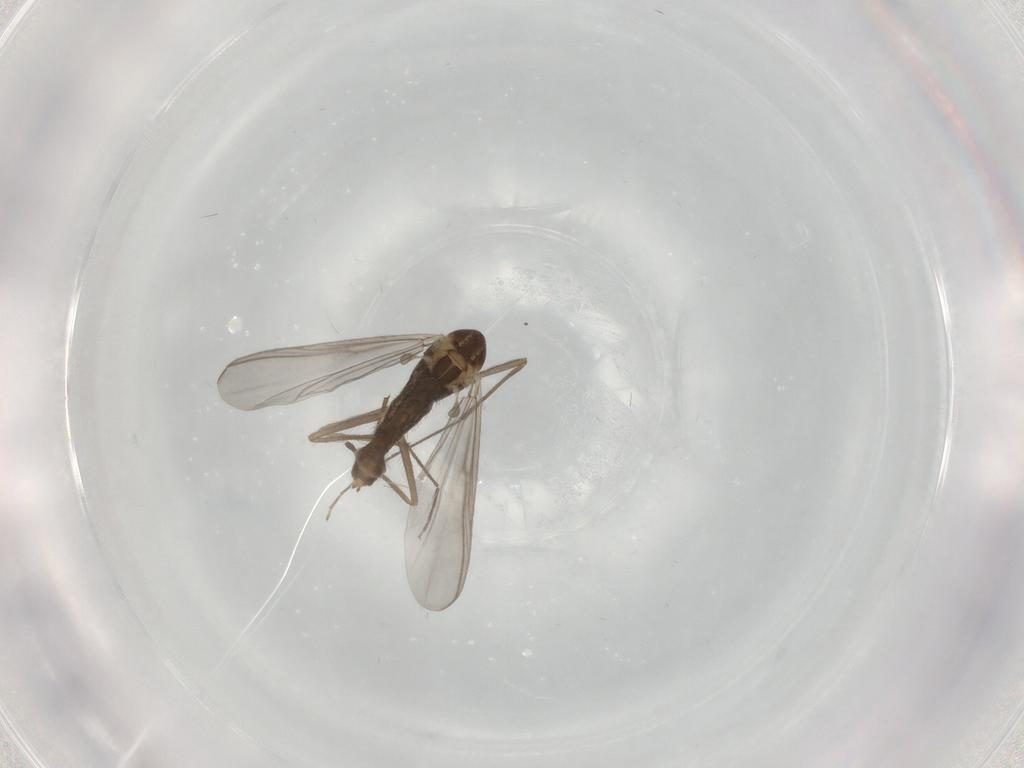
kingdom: Animalia
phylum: Arthropoda
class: Insecta
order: Diptera
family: Chironomidae
